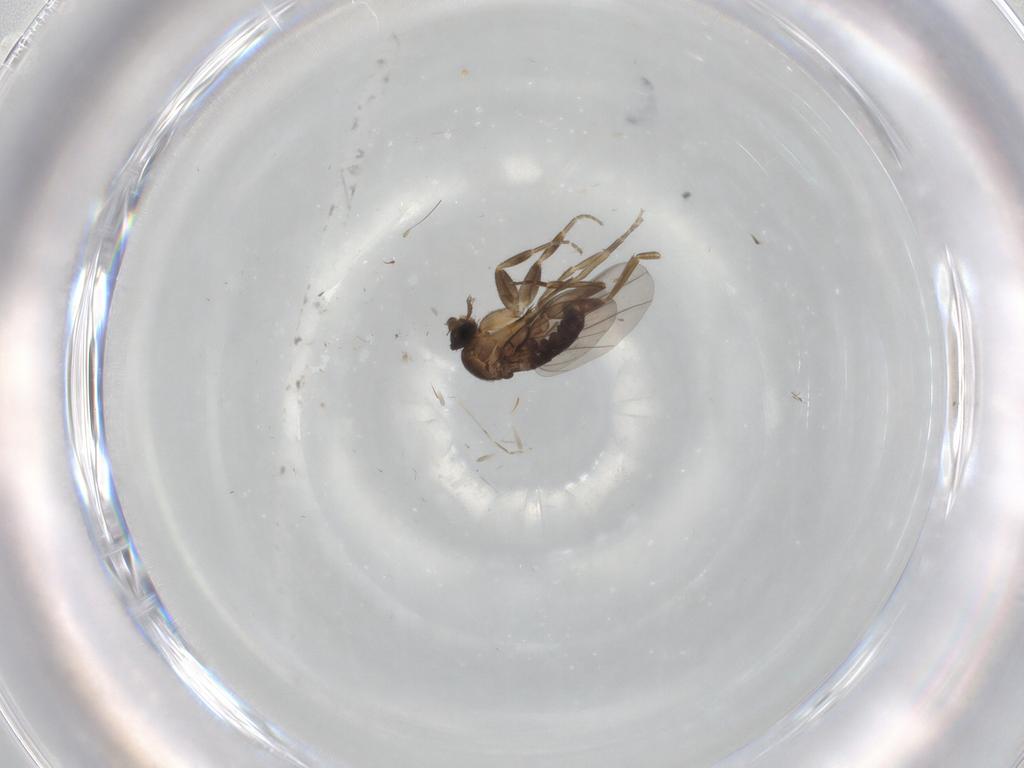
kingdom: Animalia
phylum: Arthropoda
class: Insecta
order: Diptera
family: Phoridae
